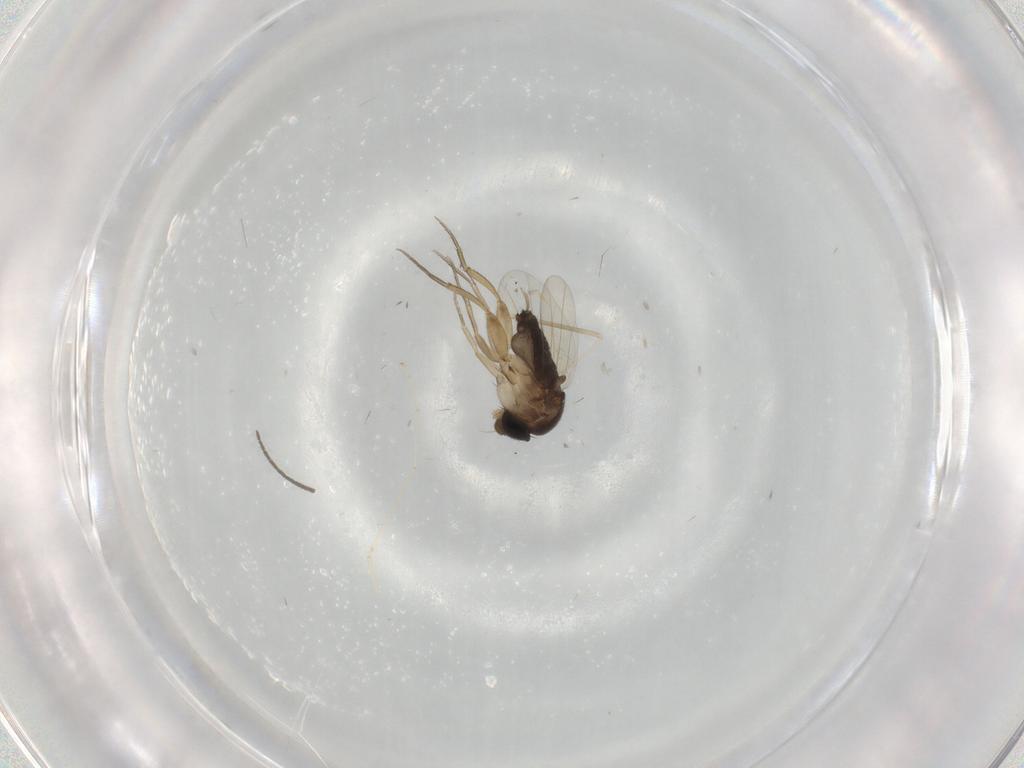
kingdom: Animalia
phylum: Arthropoda
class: Insecta
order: Diptera
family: Phoridae
